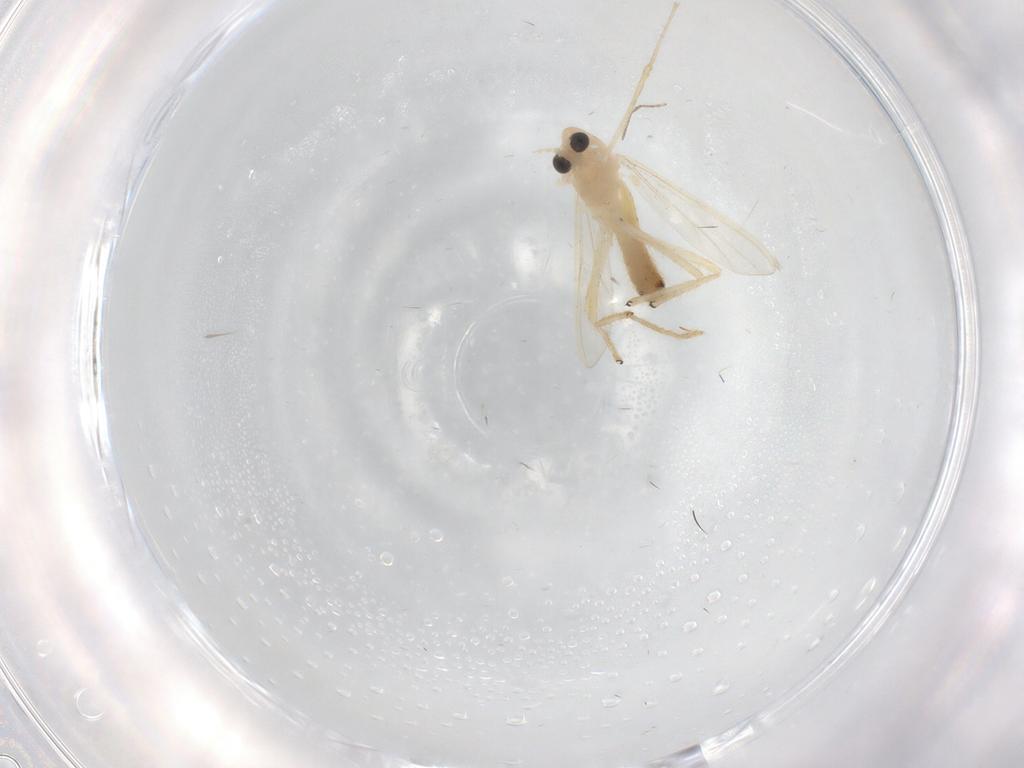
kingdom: Animalia
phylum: Arthropoda
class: Insecta
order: Diptera
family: Chironomidae
